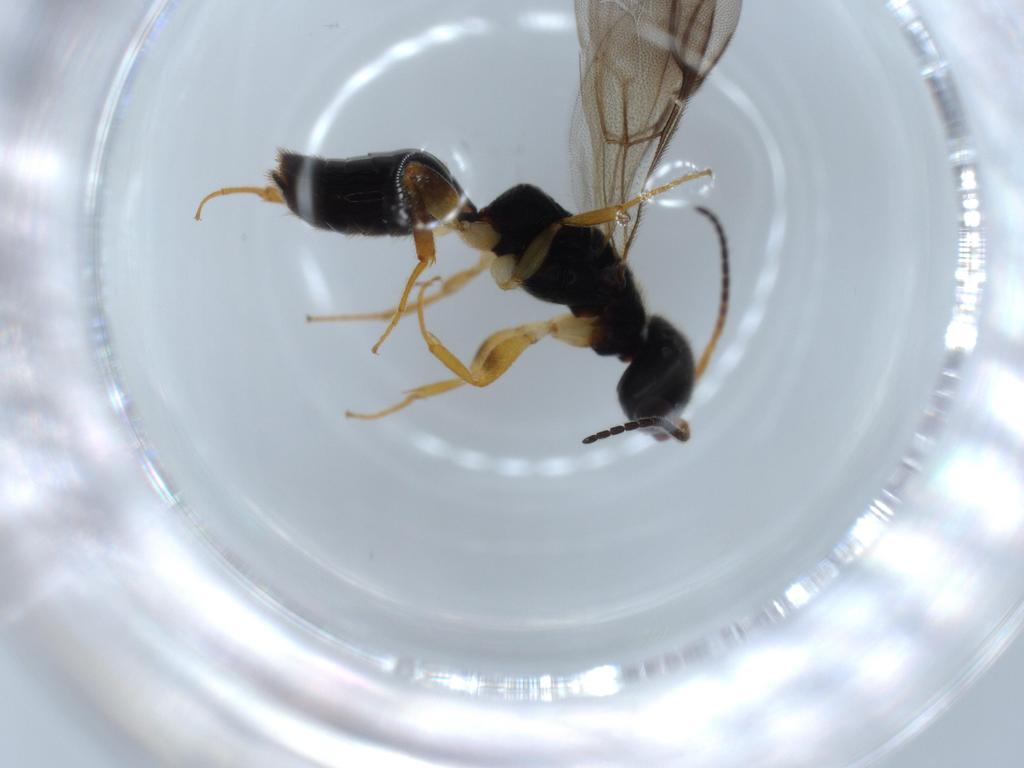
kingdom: Animalia
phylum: Arthropoda
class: Insecta
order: Hymenoptera
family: Bethylidae
